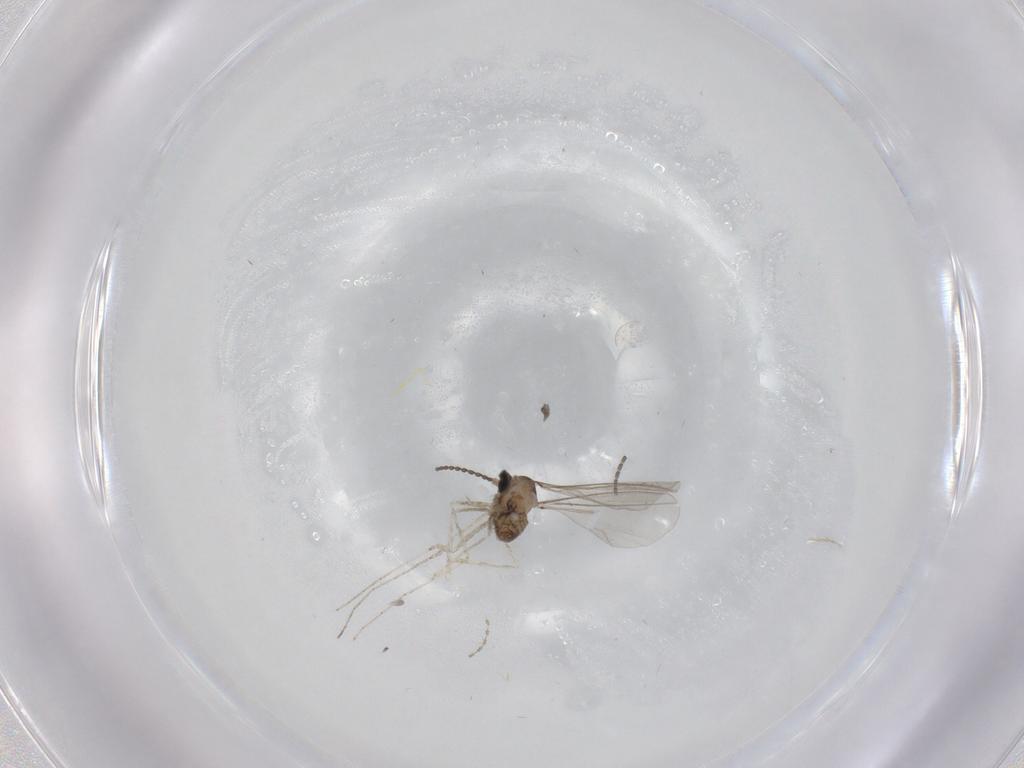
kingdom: Animalia
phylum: Arthropoda
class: Insecta
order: Diptera
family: Cecidomyiidae
